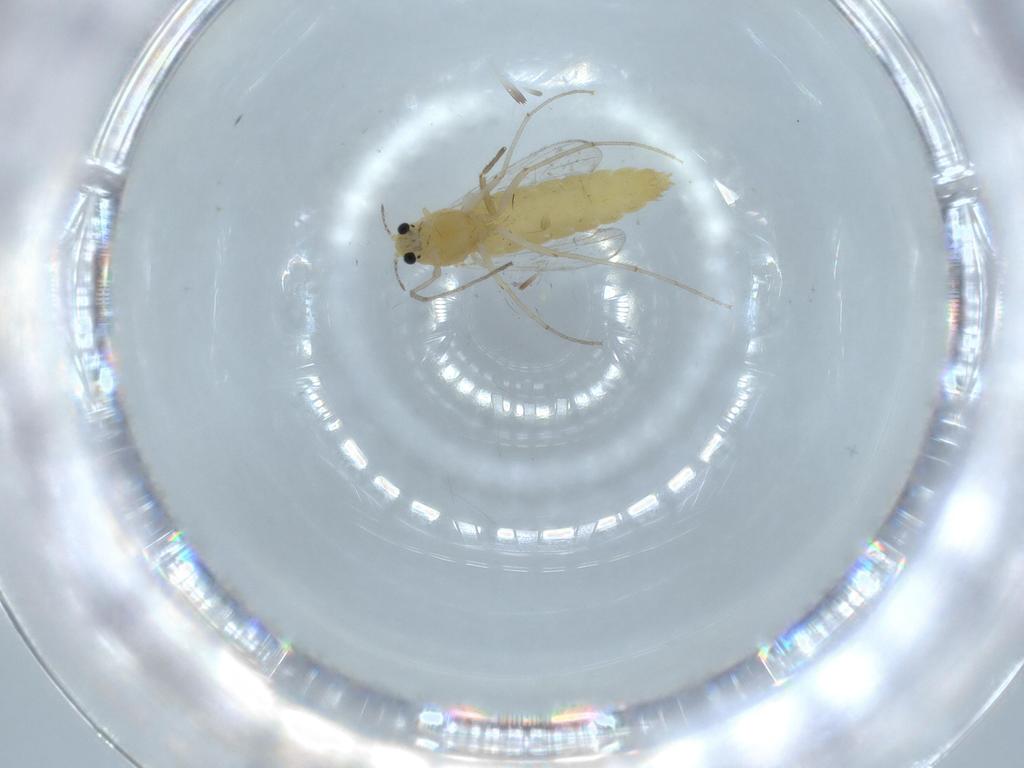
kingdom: Animalia
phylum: Arthropoda
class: Insecta
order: Diptera
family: Chironomidae
